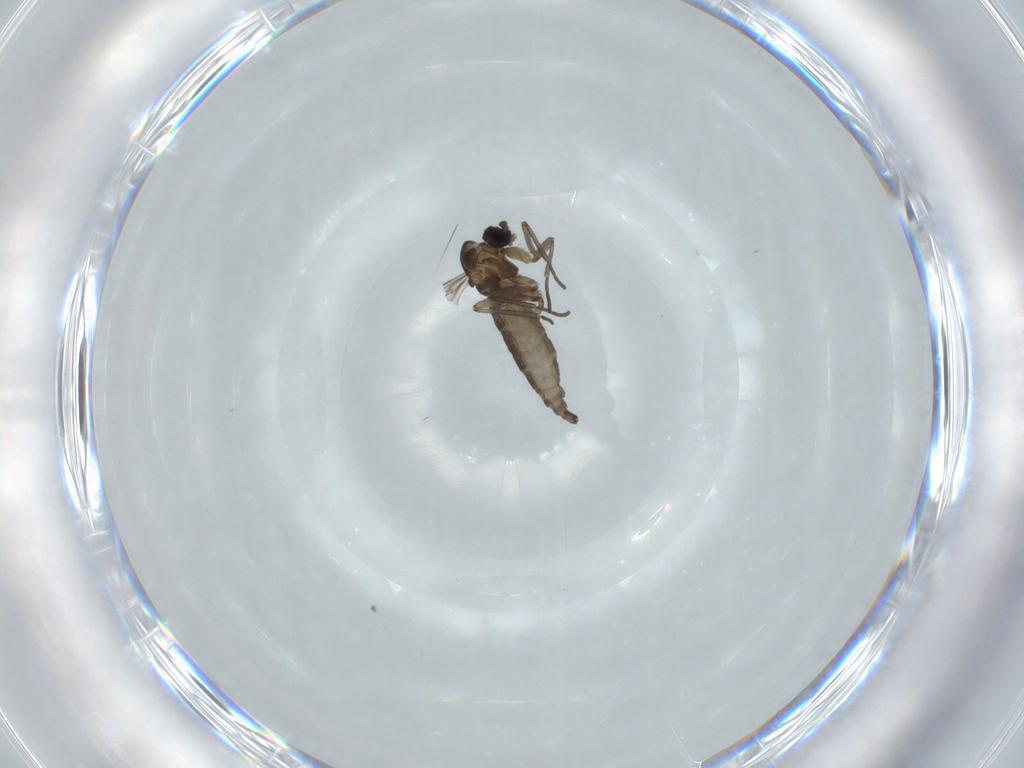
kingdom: Animalia
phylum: Arthropoda
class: Insecta
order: Diptera
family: Chironomidae
